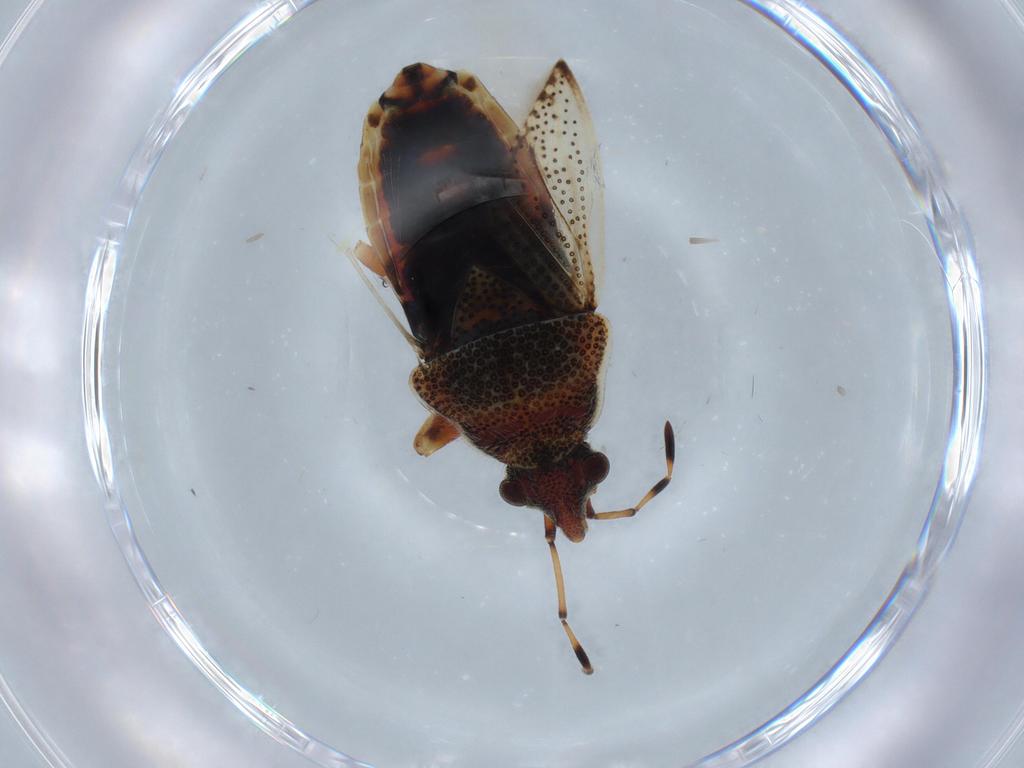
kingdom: Animalia
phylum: Arthropoda
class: Insecta
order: Hemiptera
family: Rhyparochromidae
